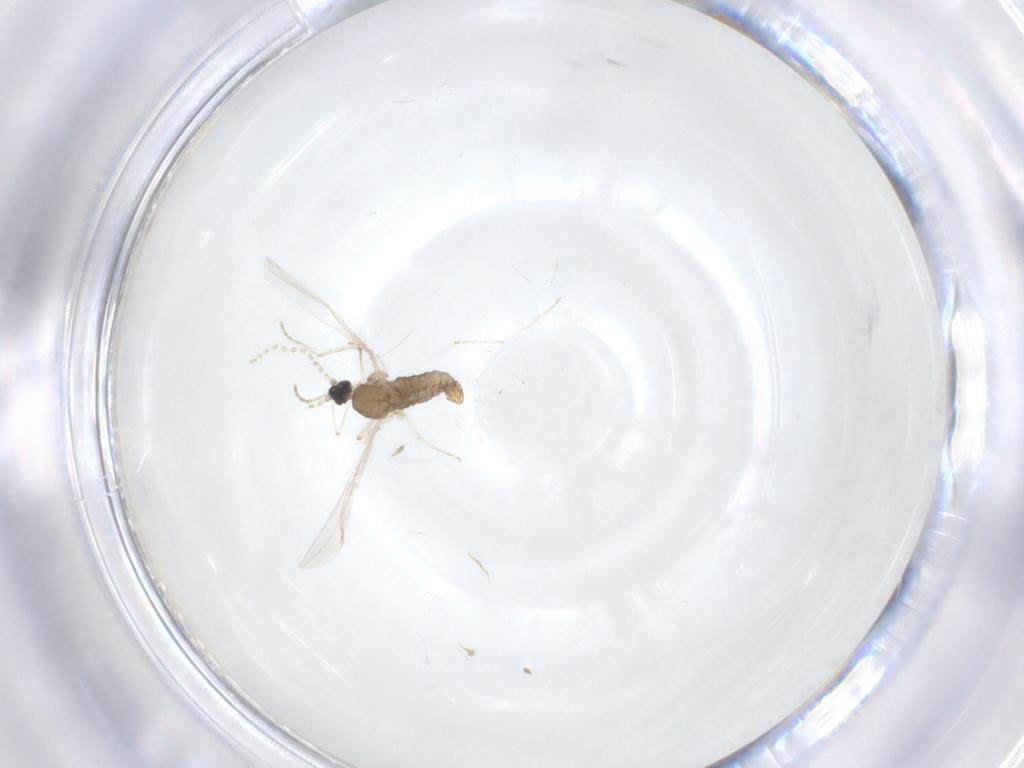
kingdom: Animalia
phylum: Arthropoda
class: Insecta
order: Diptera
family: Cecidomyiidae
